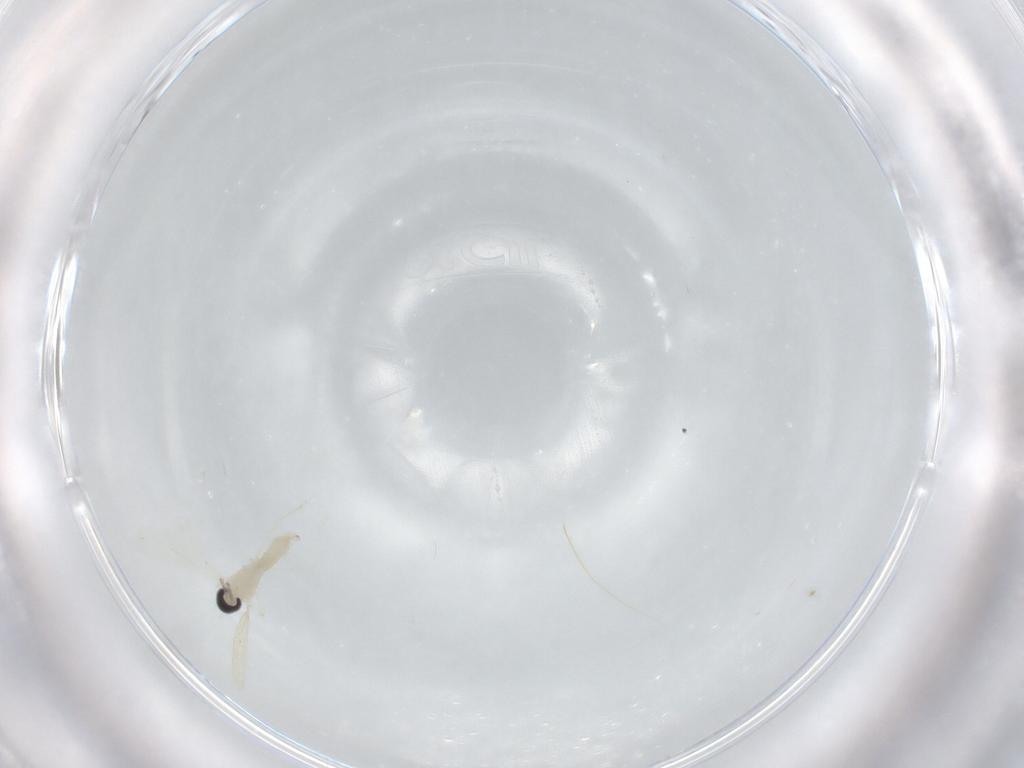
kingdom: Animalia
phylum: Arthropoda
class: Insecta
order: Diptera
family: Cecidomyiidae
